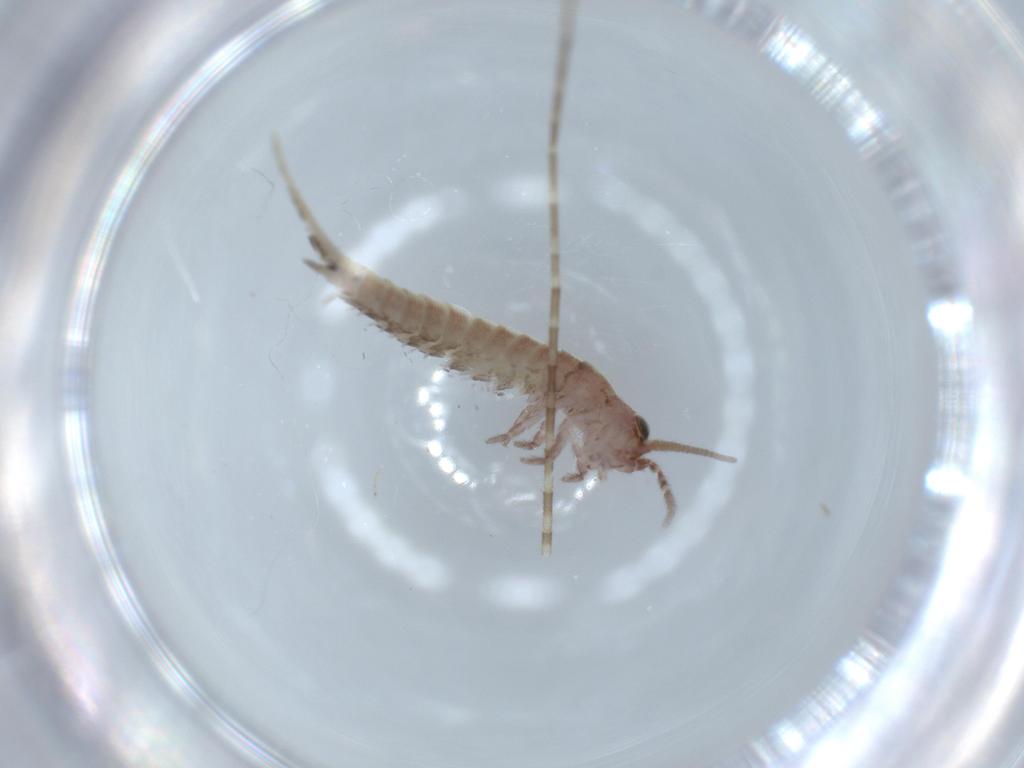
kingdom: Animalia
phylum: Arthropoda
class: Insecta
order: Archaeognatha
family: Machilidae
